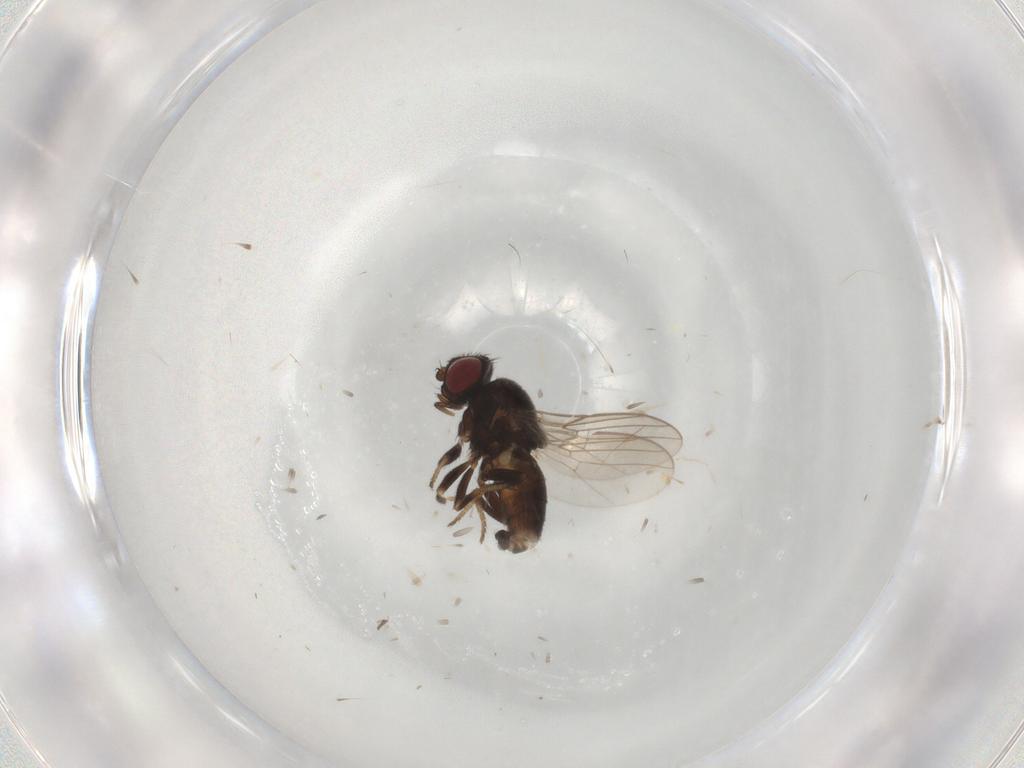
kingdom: Animalia
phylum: Arthropoda
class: Insecta
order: Diptera
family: Chloropidae
